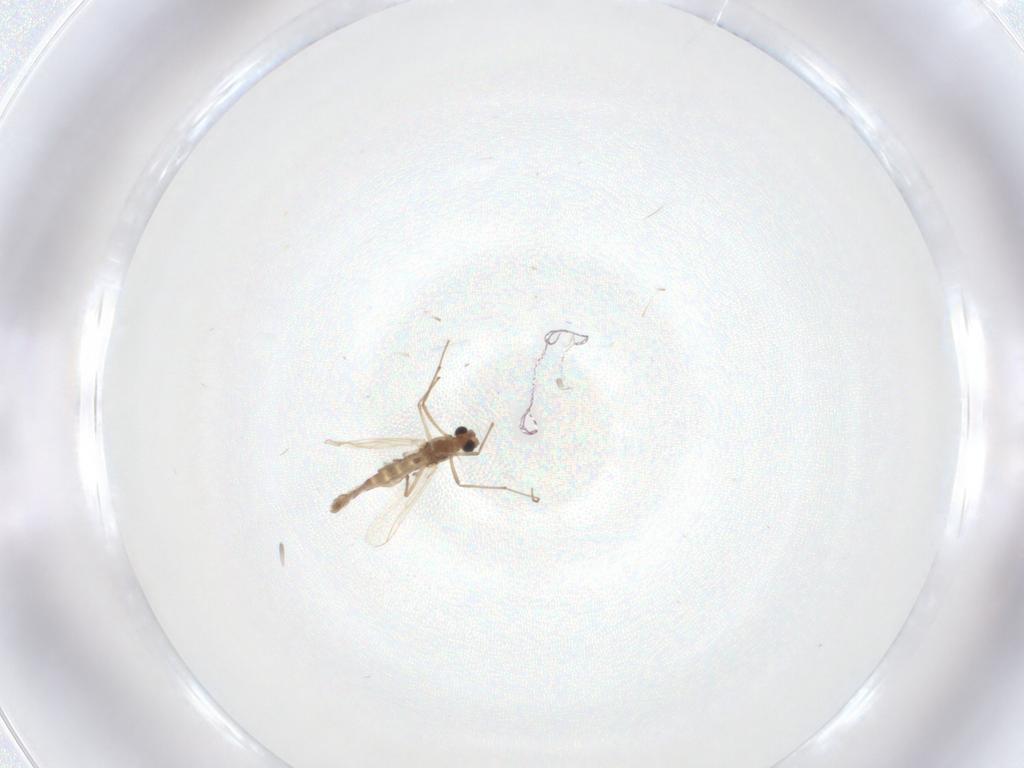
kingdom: Animalia
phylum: Arthropoda
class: Insecta
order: Diptera
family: Chironomidae
